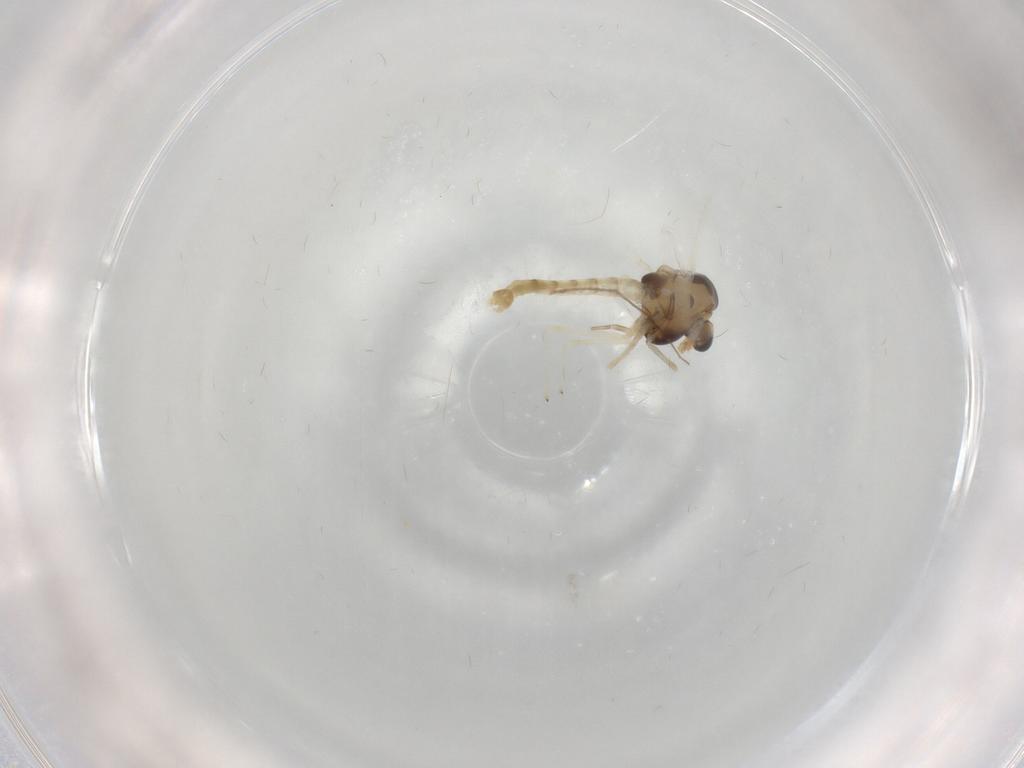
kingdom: Animalia
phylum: Arthropoda
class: Insecta
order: Diptera
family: Chironomidae
